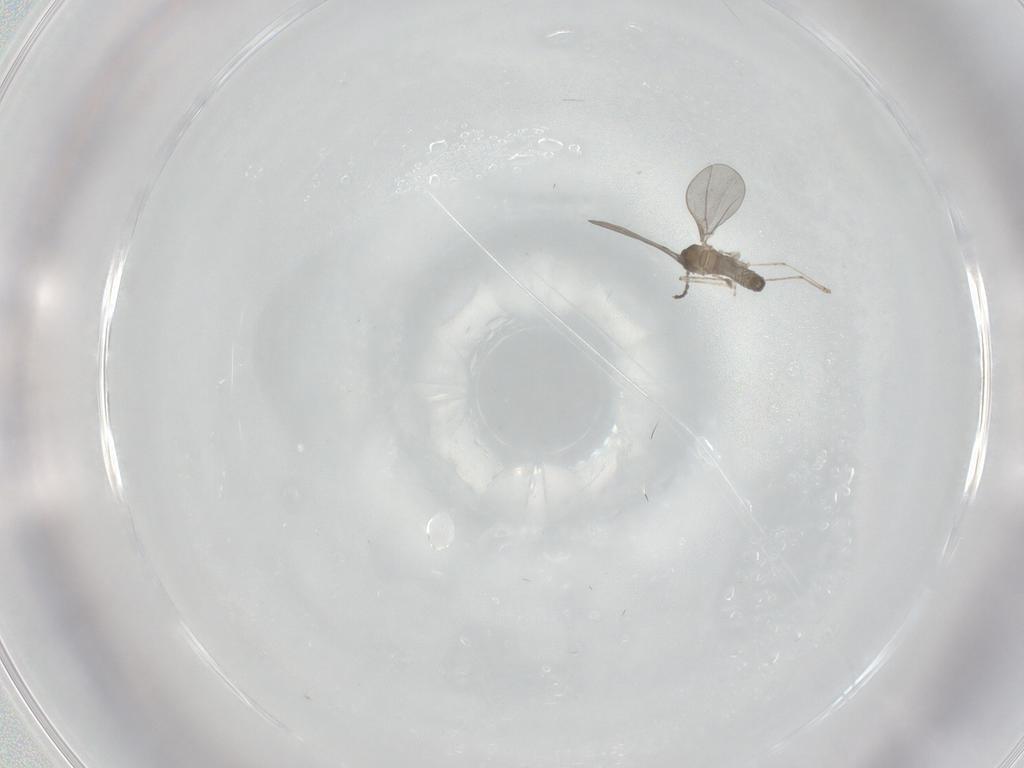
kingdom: Animalia
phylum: Arthropoda
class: Insecta
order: Diptera
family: Cecidomyiidae
